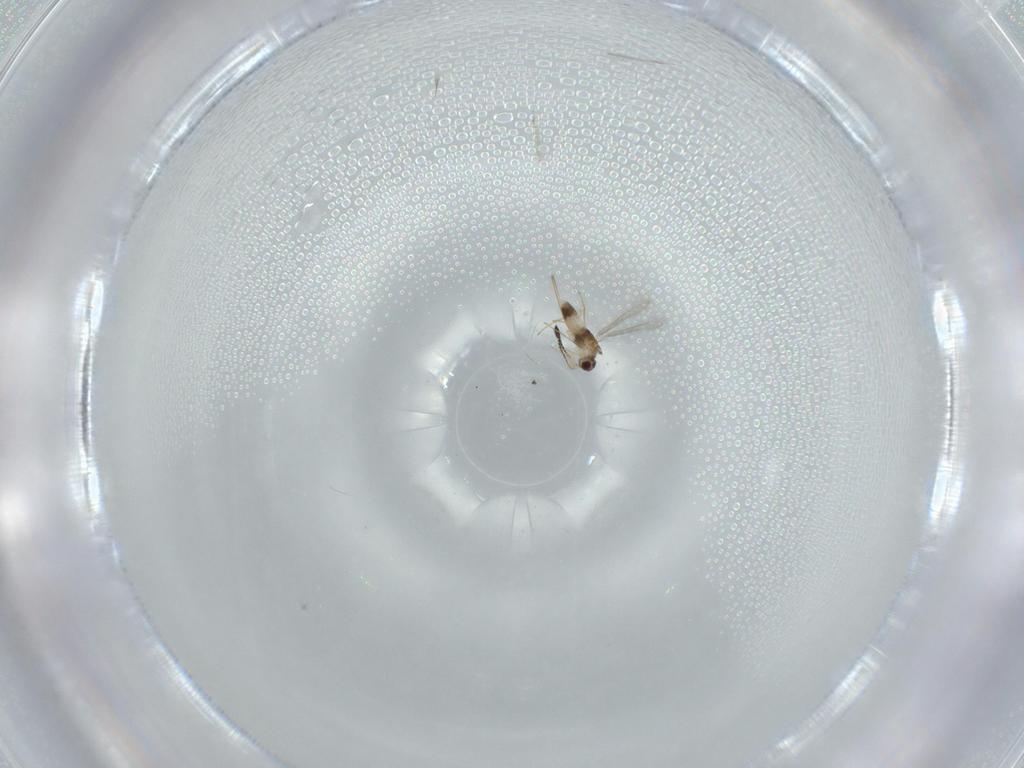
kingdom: Animalia
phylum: Arthropoda
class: Insecta
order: Hymenoptera
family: Mymaridae
